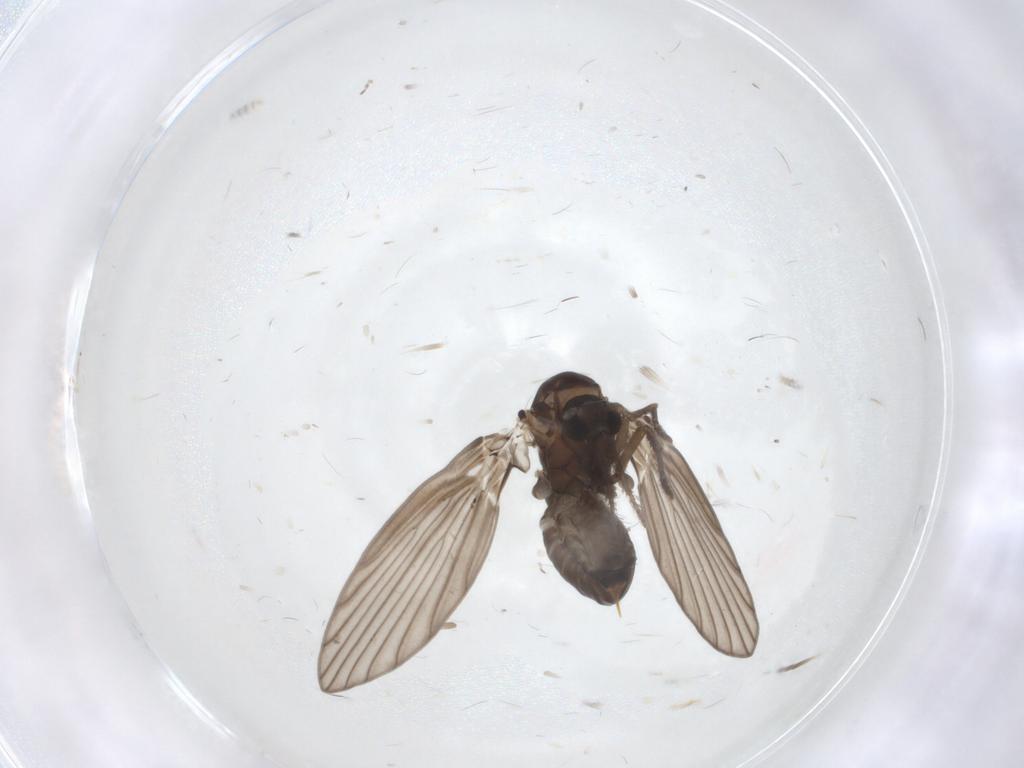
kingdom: Animalia
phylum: Arthropoda
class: Insecta
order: Diptera
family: Psychodidae
